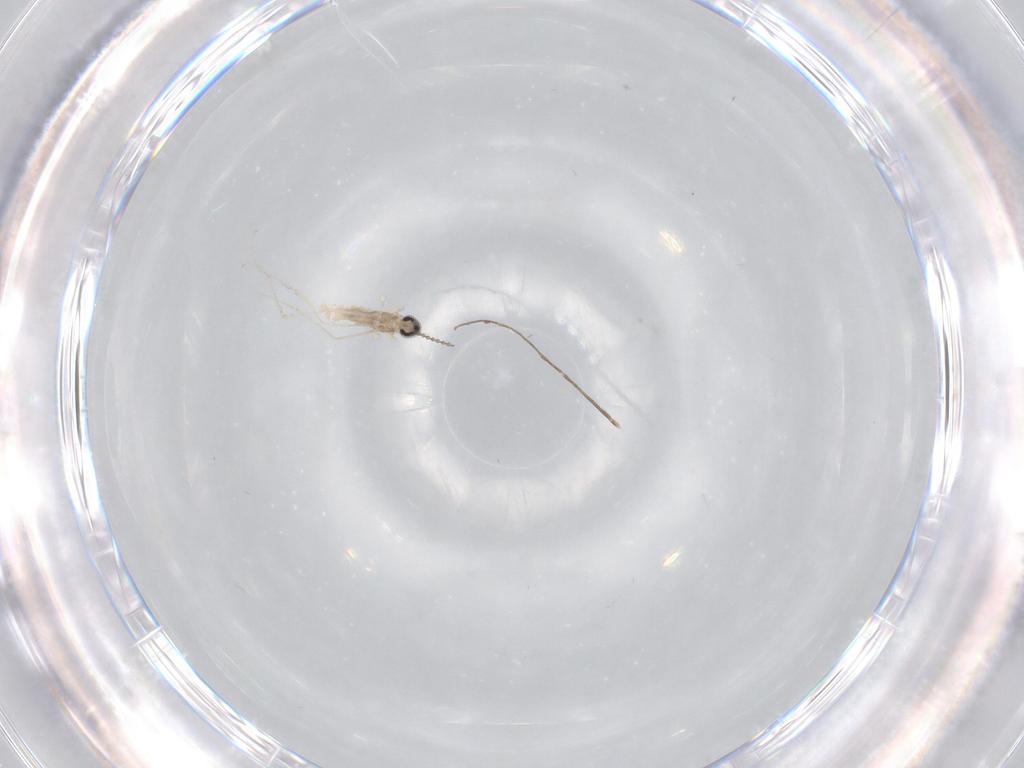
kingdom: Animalia
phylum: Arthropoda
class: Insecta
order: Diptera
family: Cecidomyiidae
